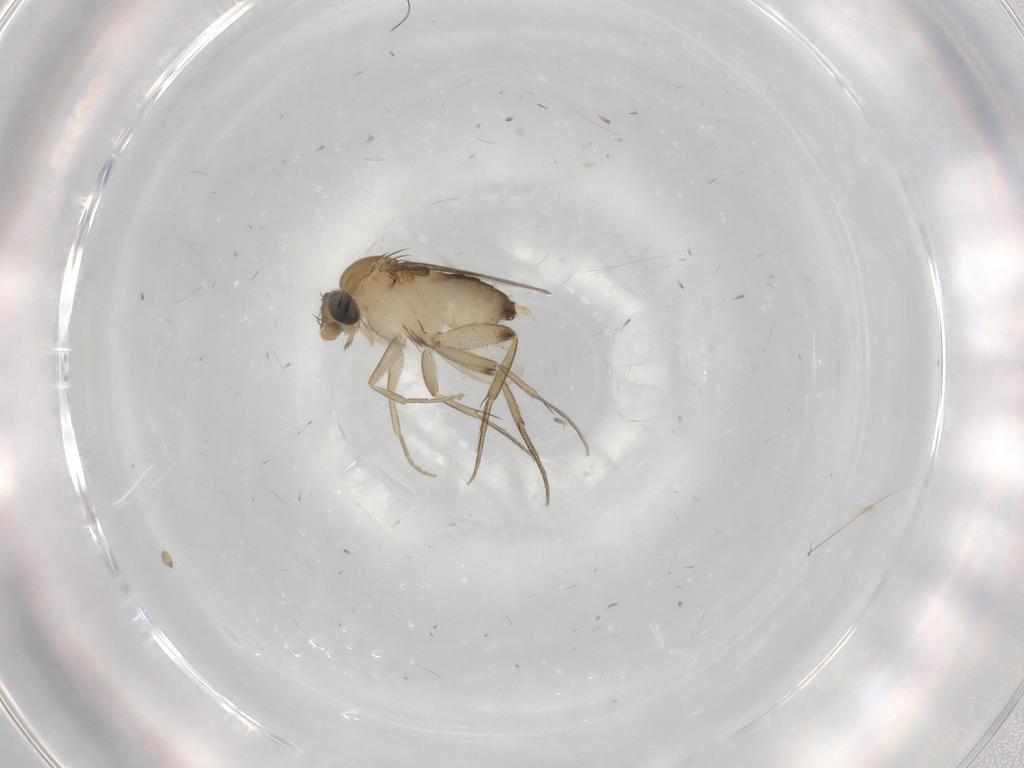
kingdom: Animalia
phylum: Arthropoda
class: Insecta
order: Diptera
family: Phoridae
